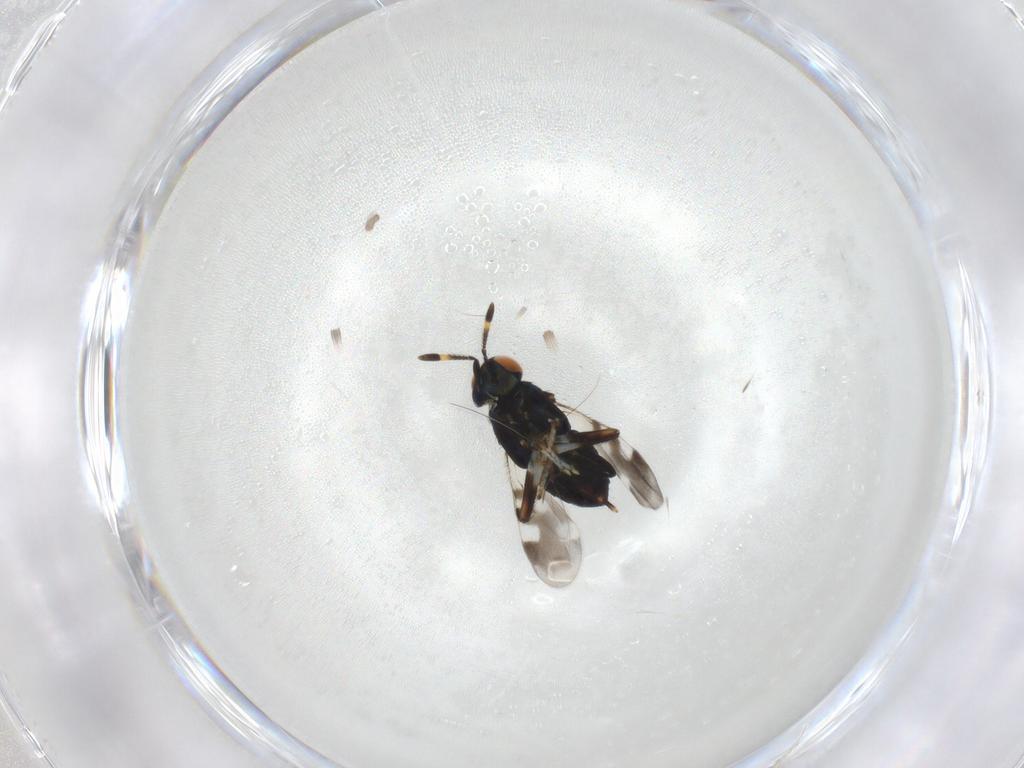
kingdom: Animalia
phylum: Arthropoda
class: Insecta
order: Hymenoptera
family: Encyrtidae
